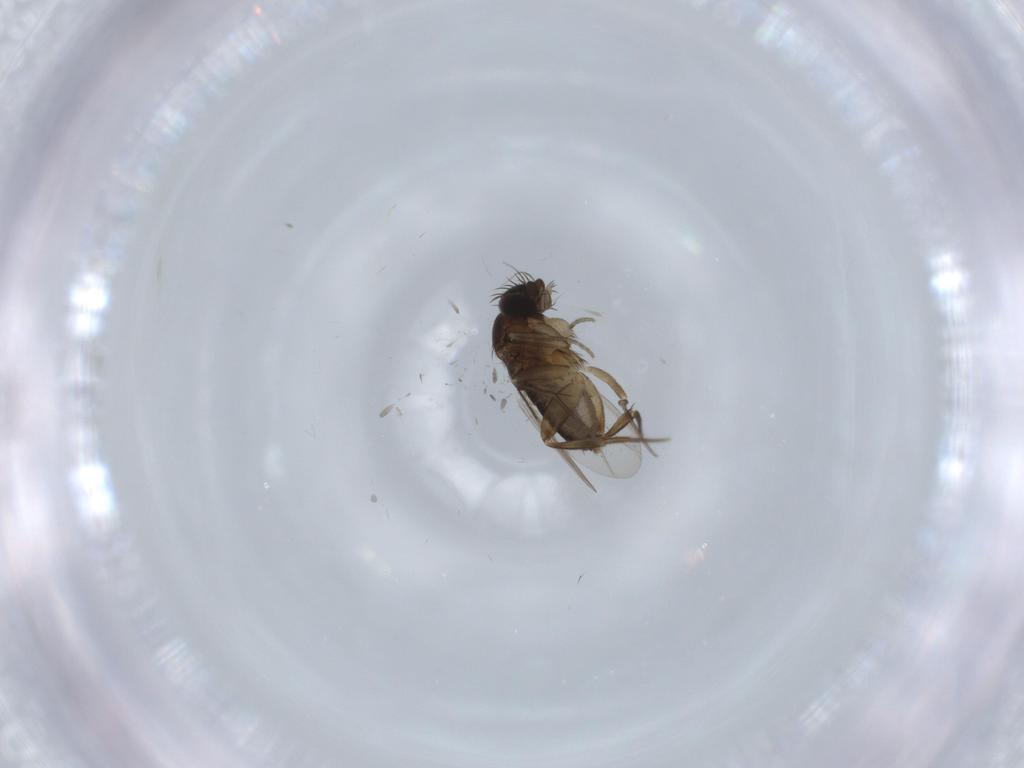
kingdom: Animalia
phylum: Arthropoda
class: Insecta
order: Diptera
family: Phoridae
